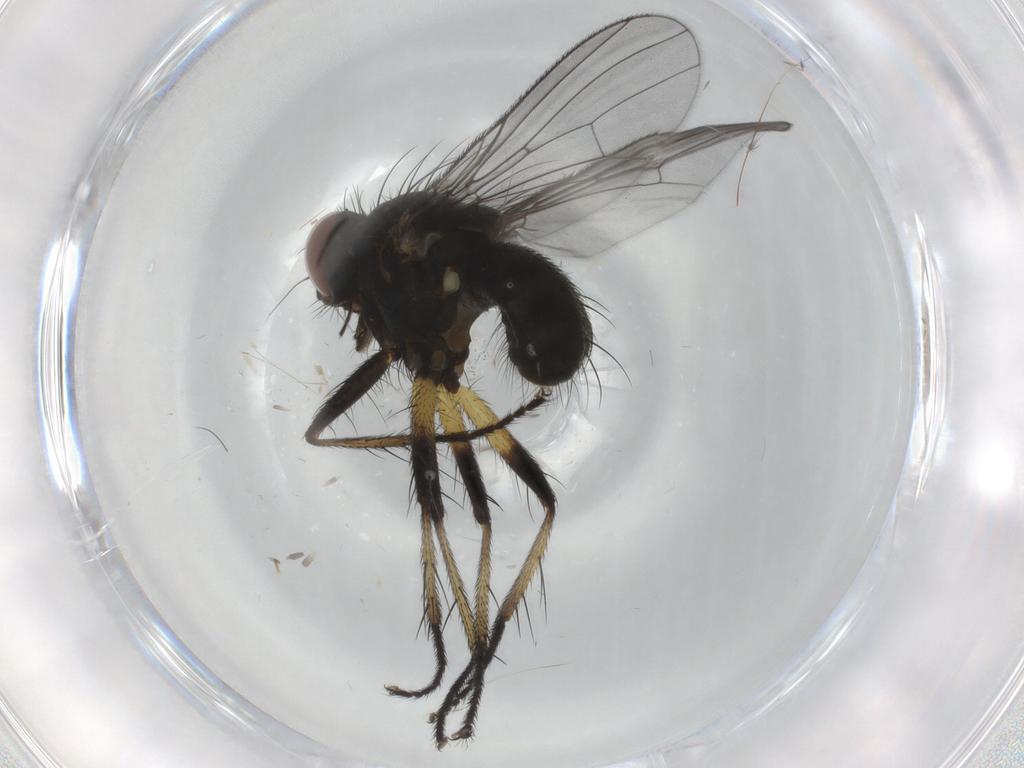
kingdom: Animalia
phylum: Arthropoda
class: Insecta
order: Diptera
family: Muscidae
